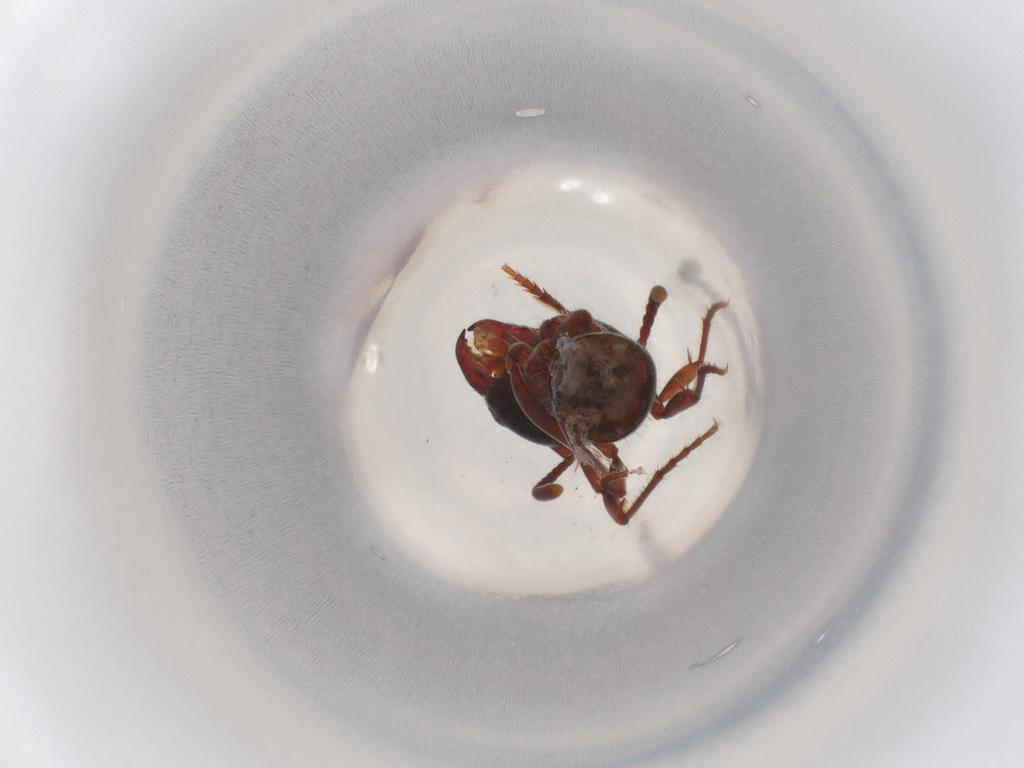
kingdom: Animalia
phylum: Arthropoda
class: Insecta
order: Hymenoptera
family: Formicidae
